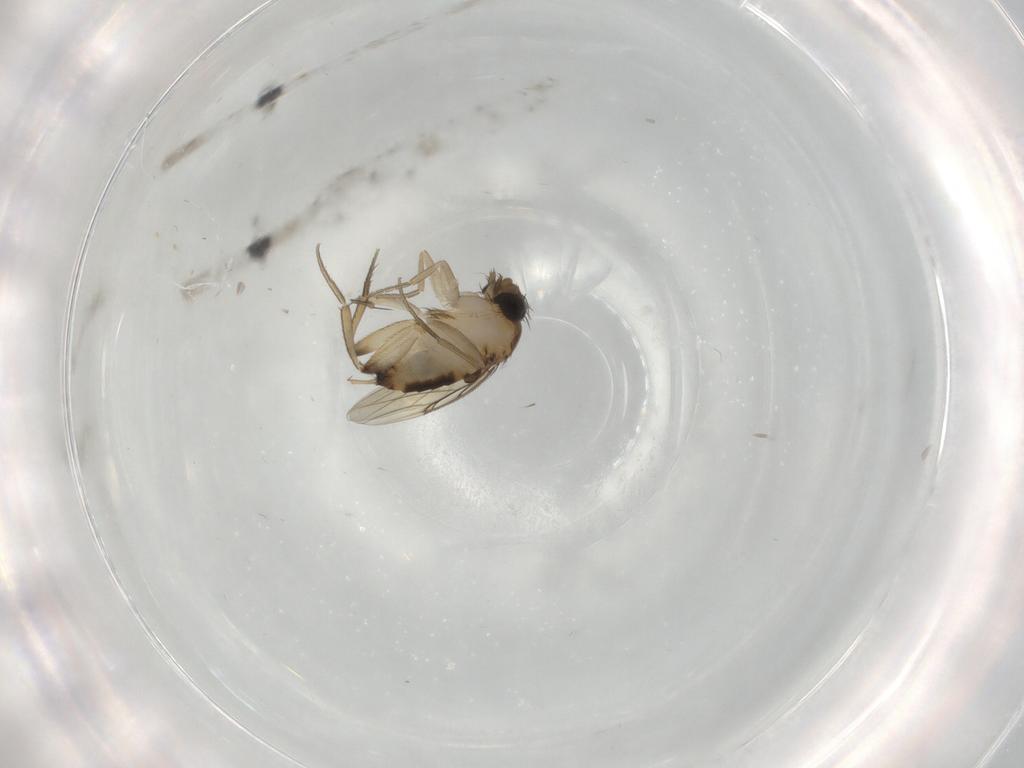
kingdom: Animalia
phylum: Arthropoda
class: Insecta
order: Diptera
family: Phoridae
